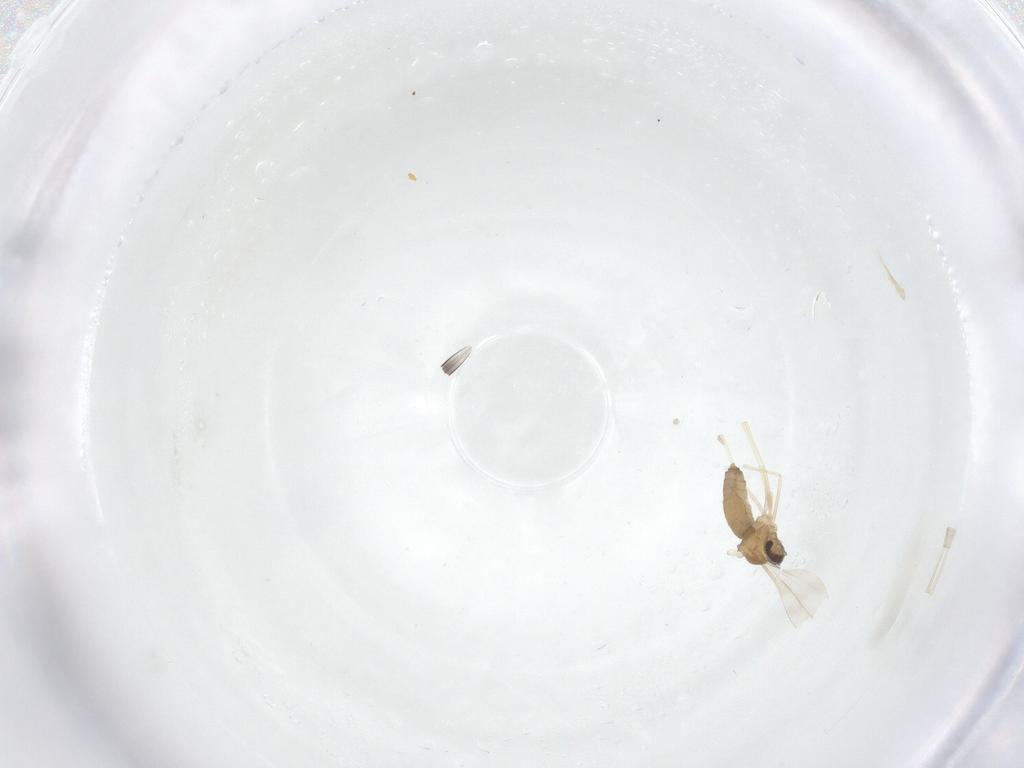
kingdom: Animalia
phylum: Arthropoda
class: Insecta
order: Diptera
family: Cecidomyiidae
